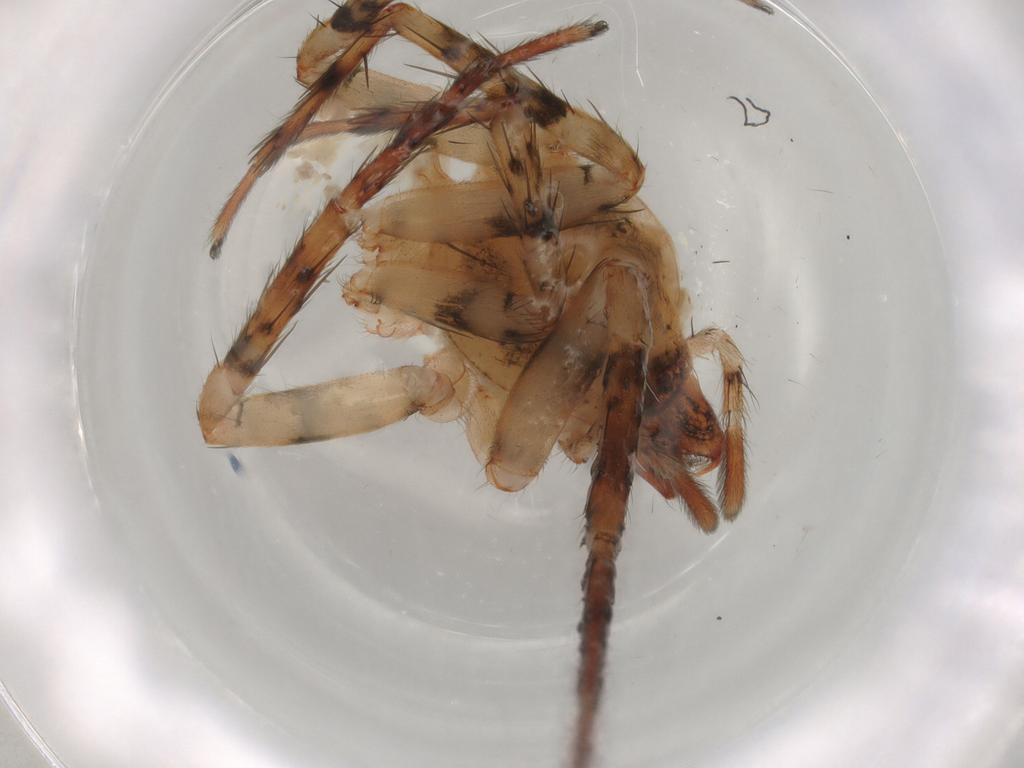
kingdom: Animalia
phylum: Arthropoda
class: Arachnida
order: Araneae
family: Anyphaenidae
